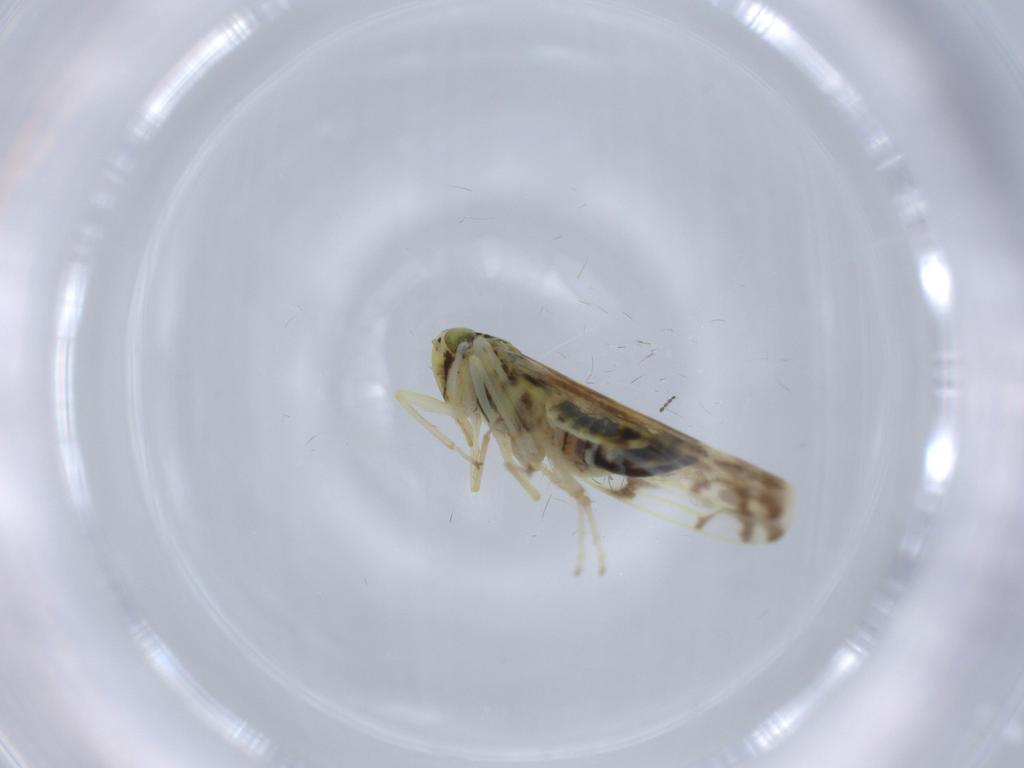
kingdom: Animalia
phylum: Arthropoda
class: Insecta
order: Hemiptera
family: Cicadellidae
